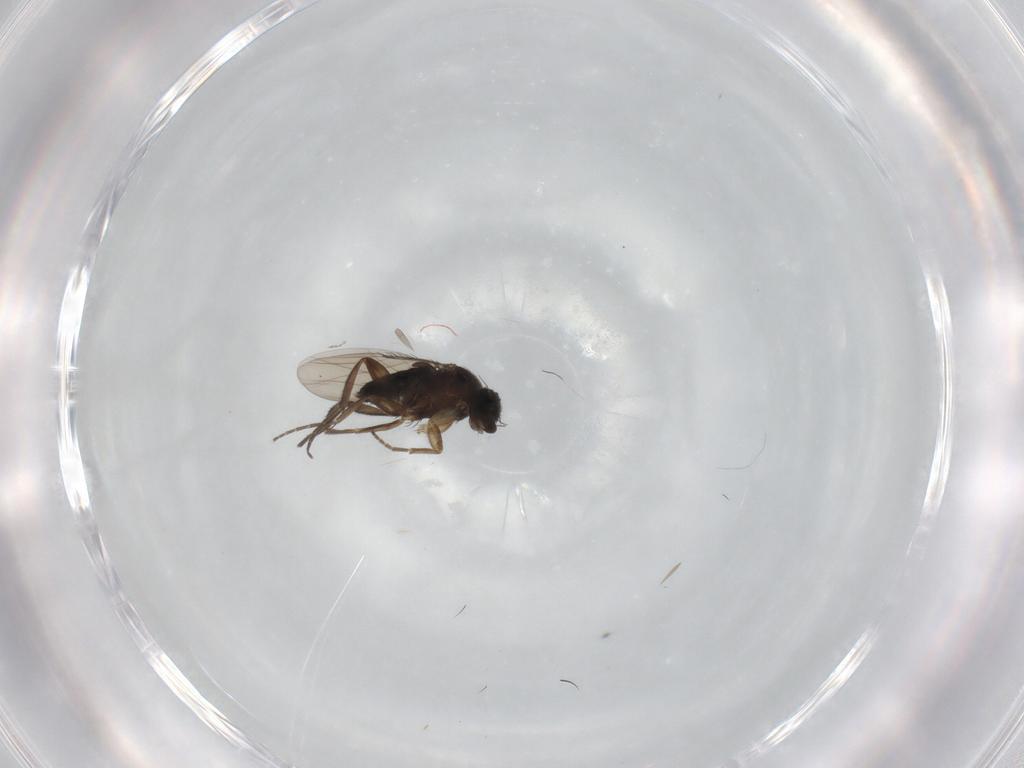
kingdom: Animalia
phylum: Arthropoda
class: Insecta
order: Diptera
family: Phoridae
